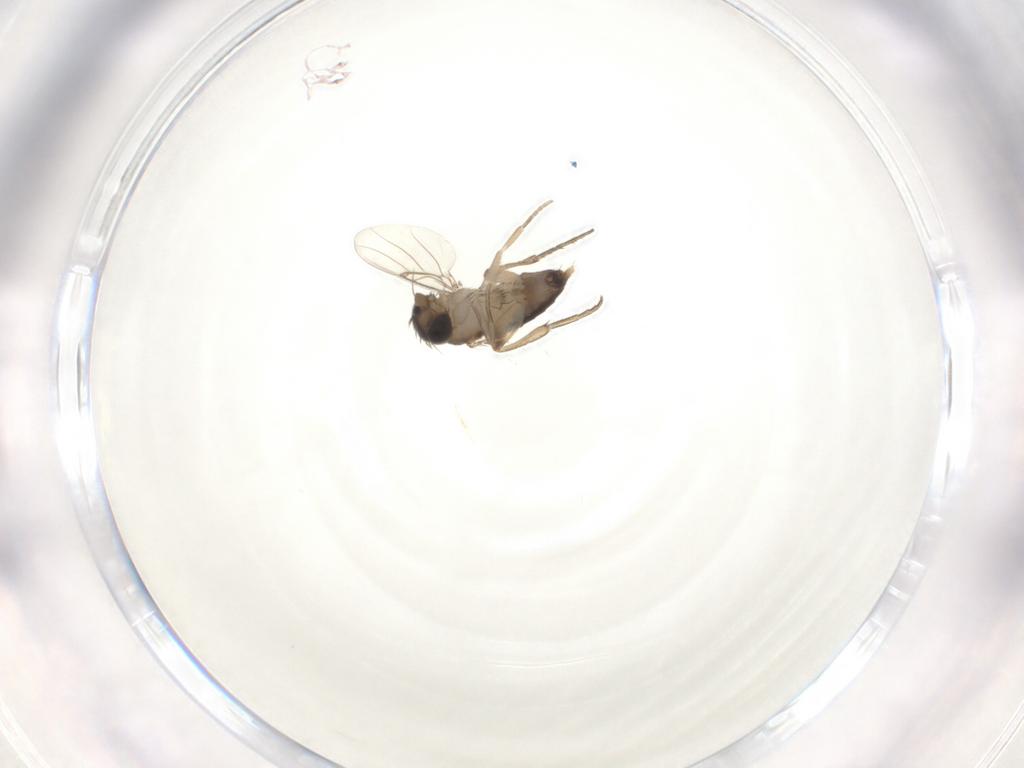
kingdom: Animalia
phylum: Arthropoda
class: Insecta
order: Diptera
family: Phoridae
